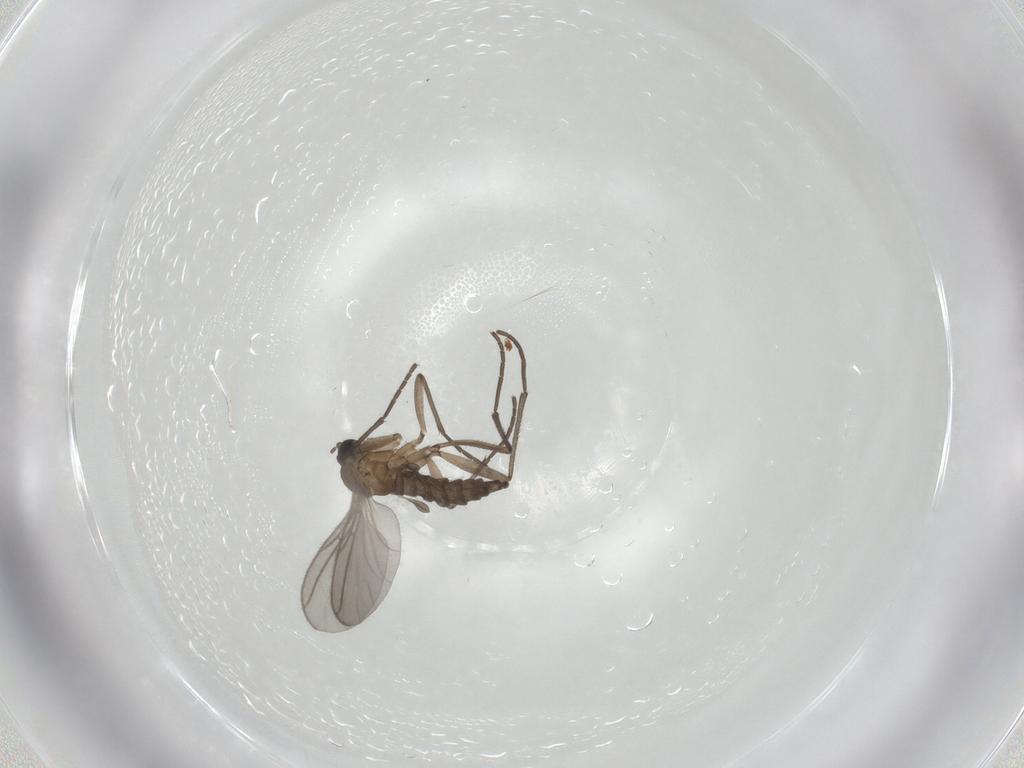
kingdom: Animalia
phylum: Arthropoda
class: Insecta
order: Diptera
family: Sciaridae
